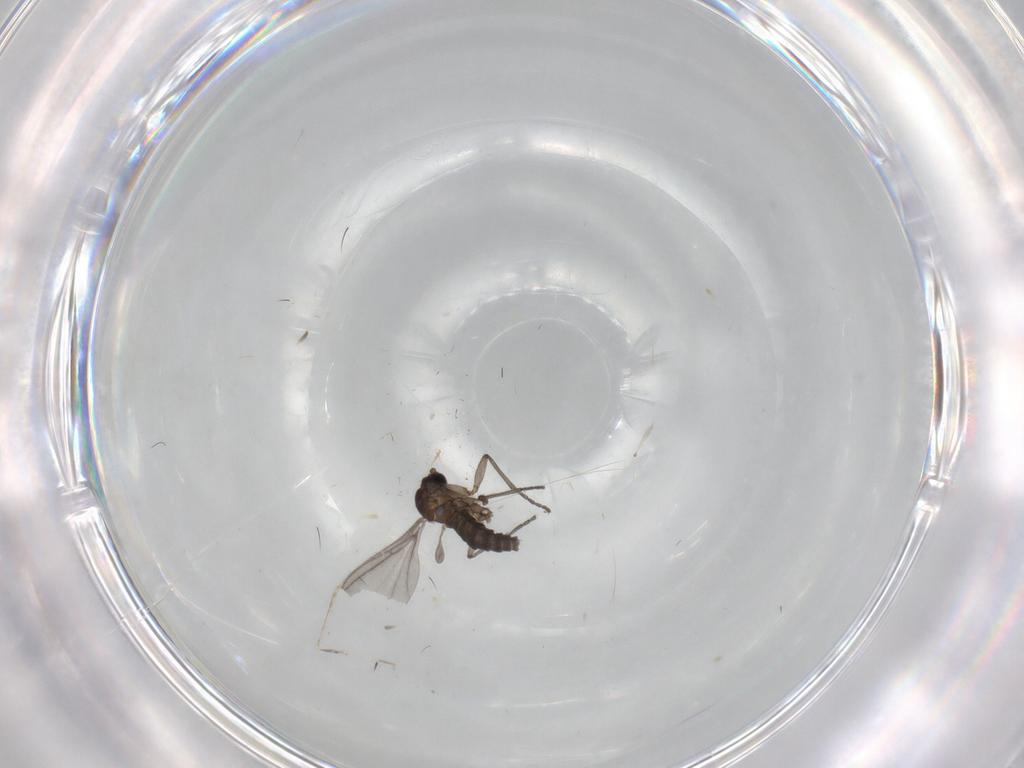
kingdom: Animalia
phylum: Arthropoda
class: Insecta
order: Diptera
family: Sciaridae
